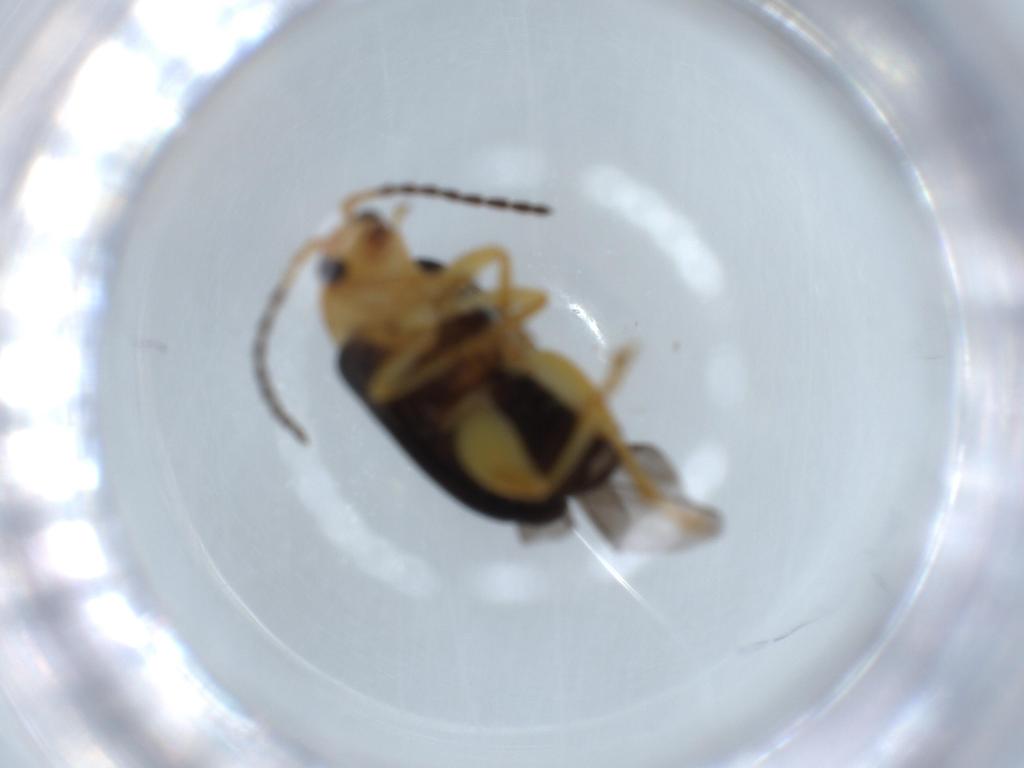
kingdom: Animalia
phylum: Arthropoda
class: Insecta
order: Coleoptera
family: Chrysomelidae
